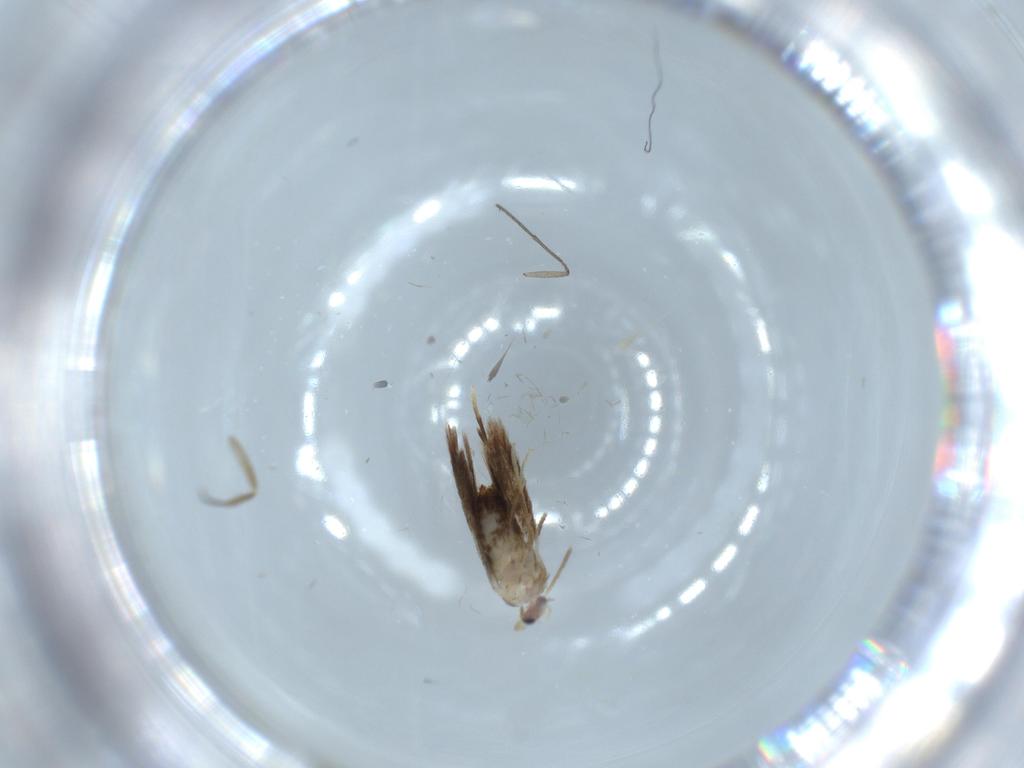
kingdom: Animalia
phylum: Arthropoda
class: Insecta
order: Lepidoptera
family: Nepticulidae
